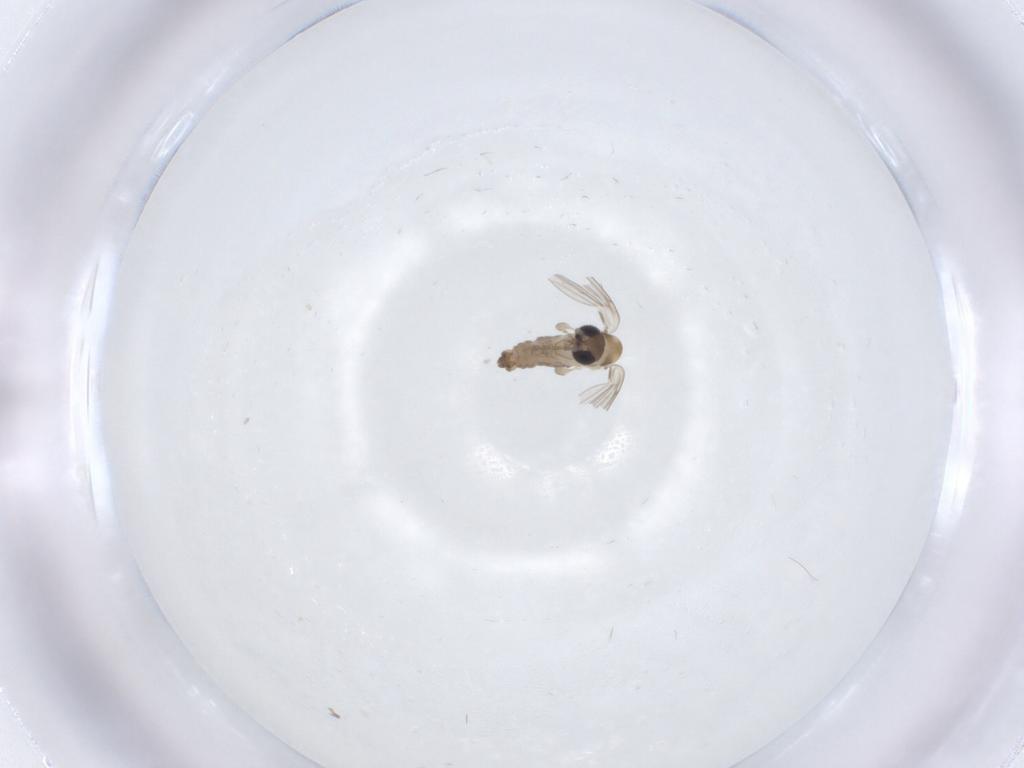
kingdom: Animalia
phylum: Arthropoda
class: Insecta
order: Diptera
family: Psychodidae
